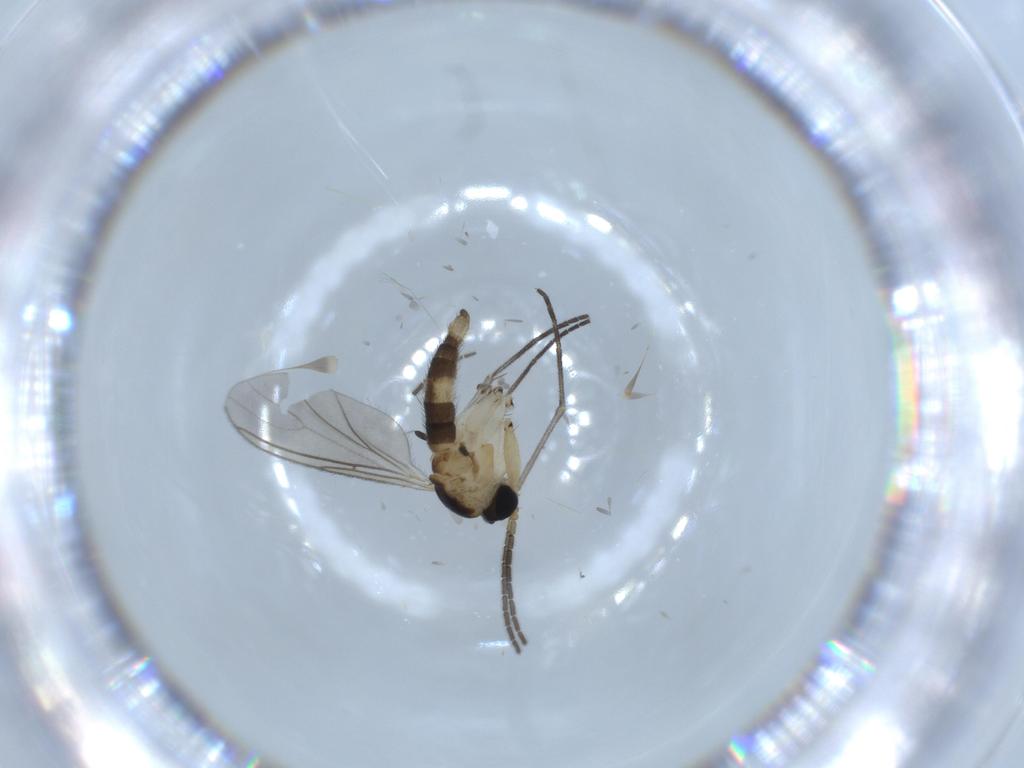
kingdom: Animalia
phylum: Arthropoda
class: Insecta
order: Diptera
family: Sciaridae
